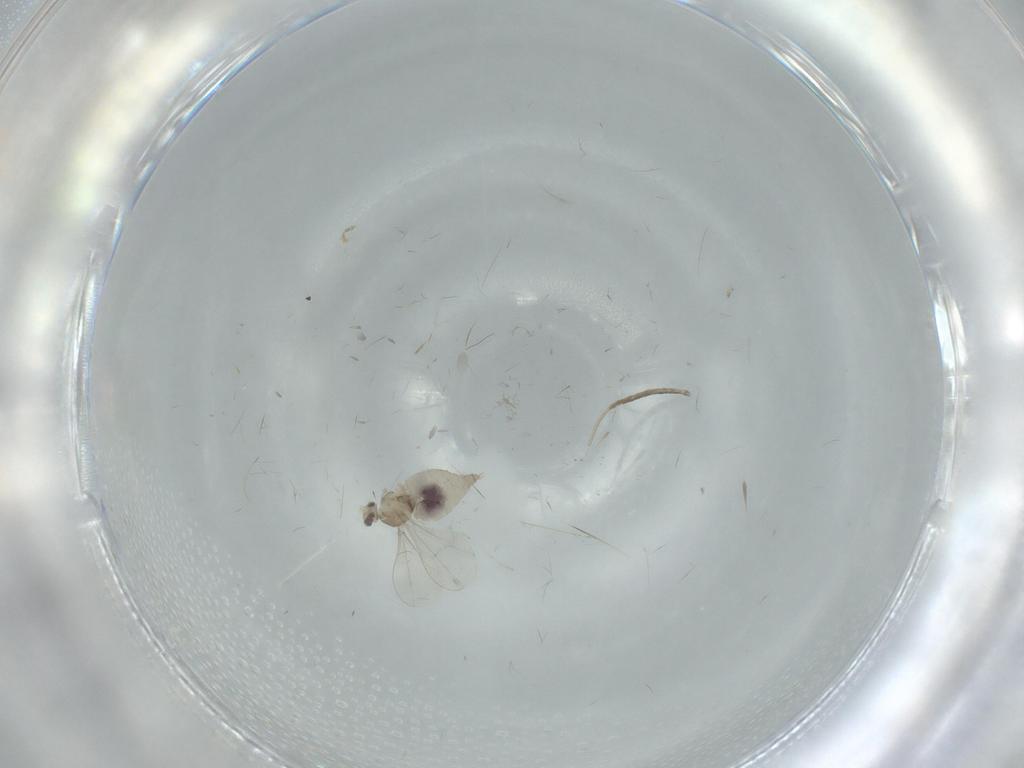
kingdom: Animalia
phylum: Arthropoda
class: Insecta
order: Diptera
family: Cecidomyiidae
